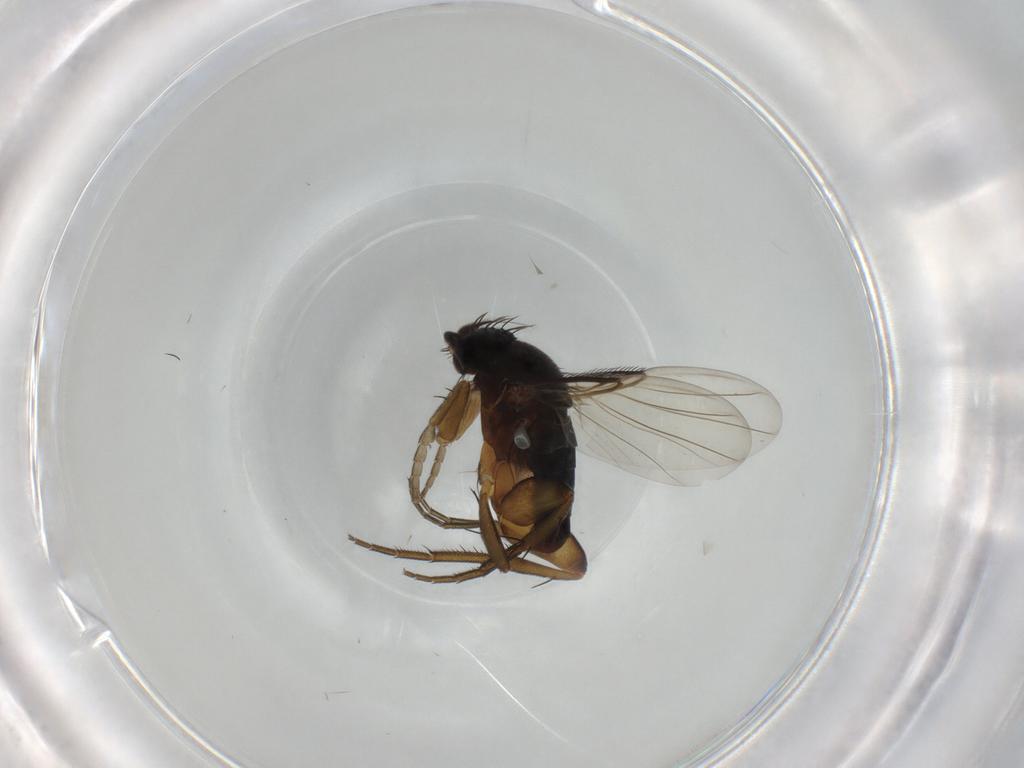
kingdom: Animalia
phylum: Arthropoda
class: Insecta
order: Diptera
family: Phoridae
